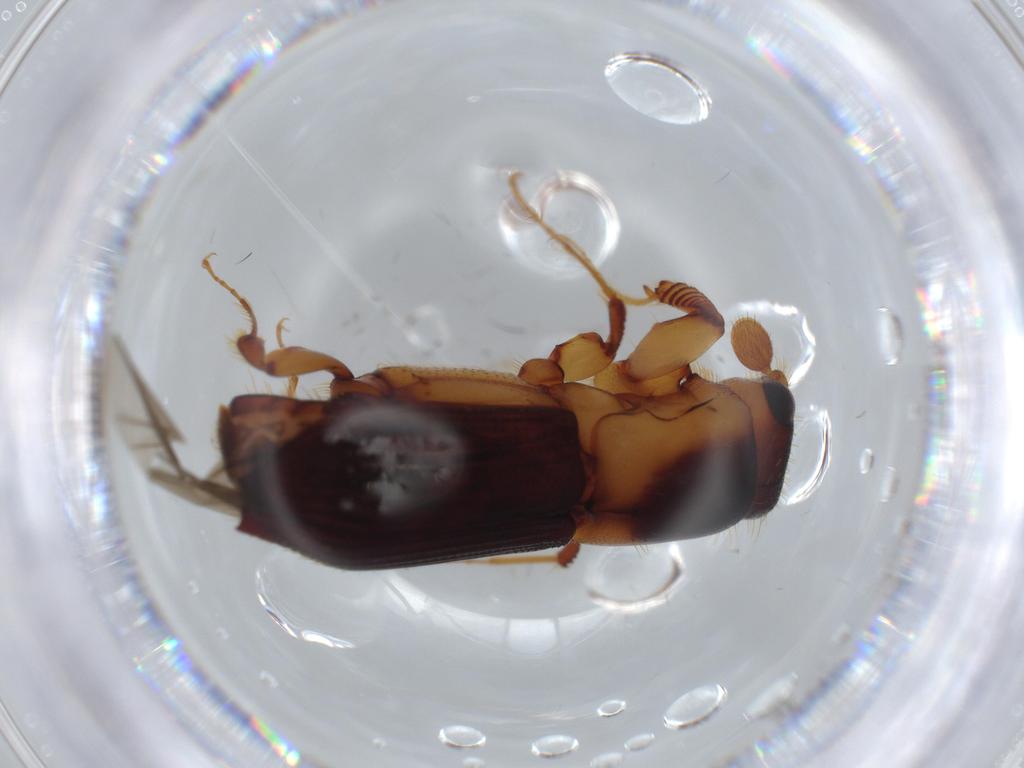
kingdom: Animalia
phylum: Arthropoda
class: Insecta
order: Coleoptera
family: Curculionidae
